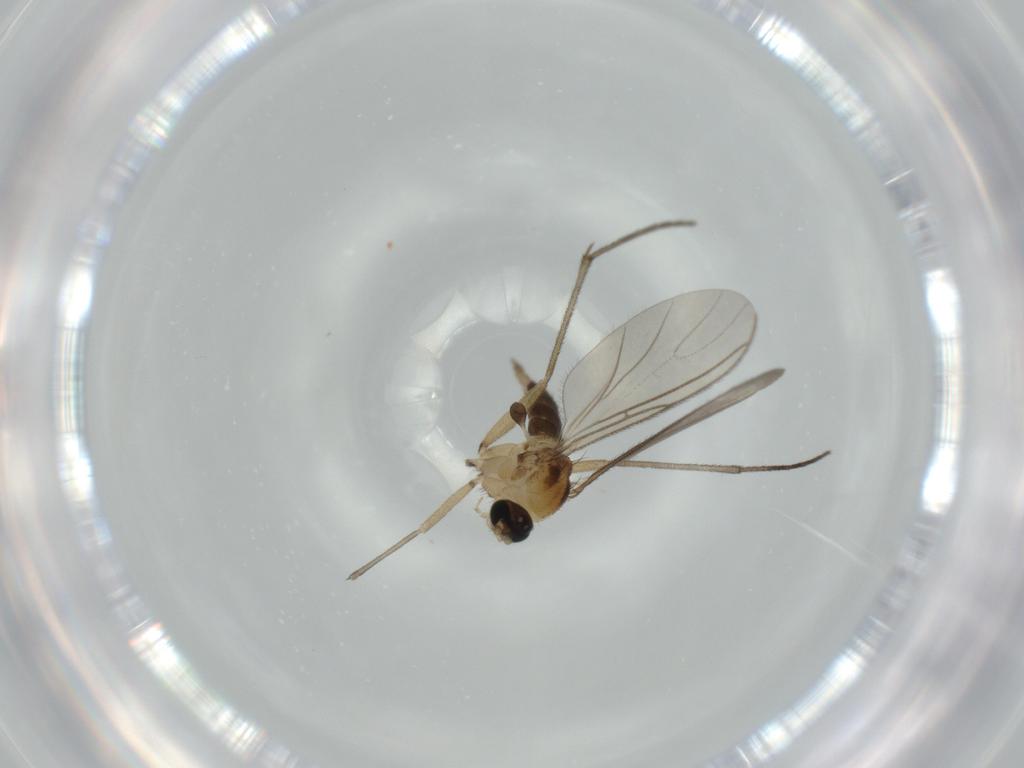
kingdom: Animalia
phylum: Arthropoda
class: Insecta
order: Diptera
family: Sciaridae
